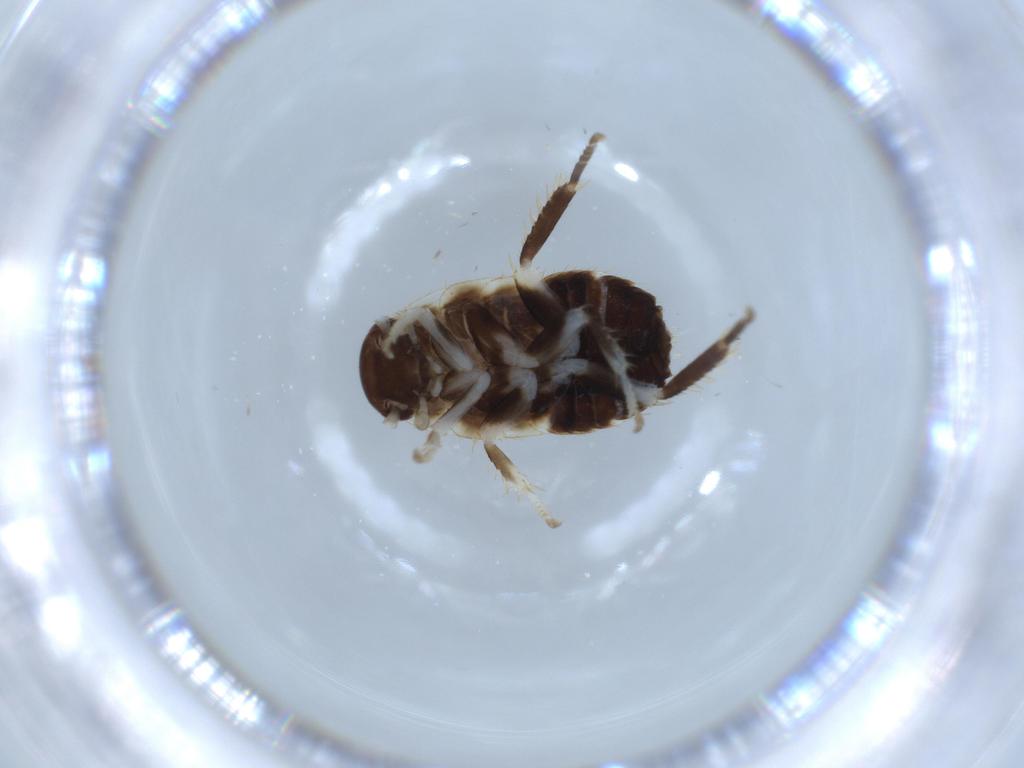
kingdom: Animalia
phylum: Arthropoda
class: Insecta
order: Blattodea
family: Ectobiidae
